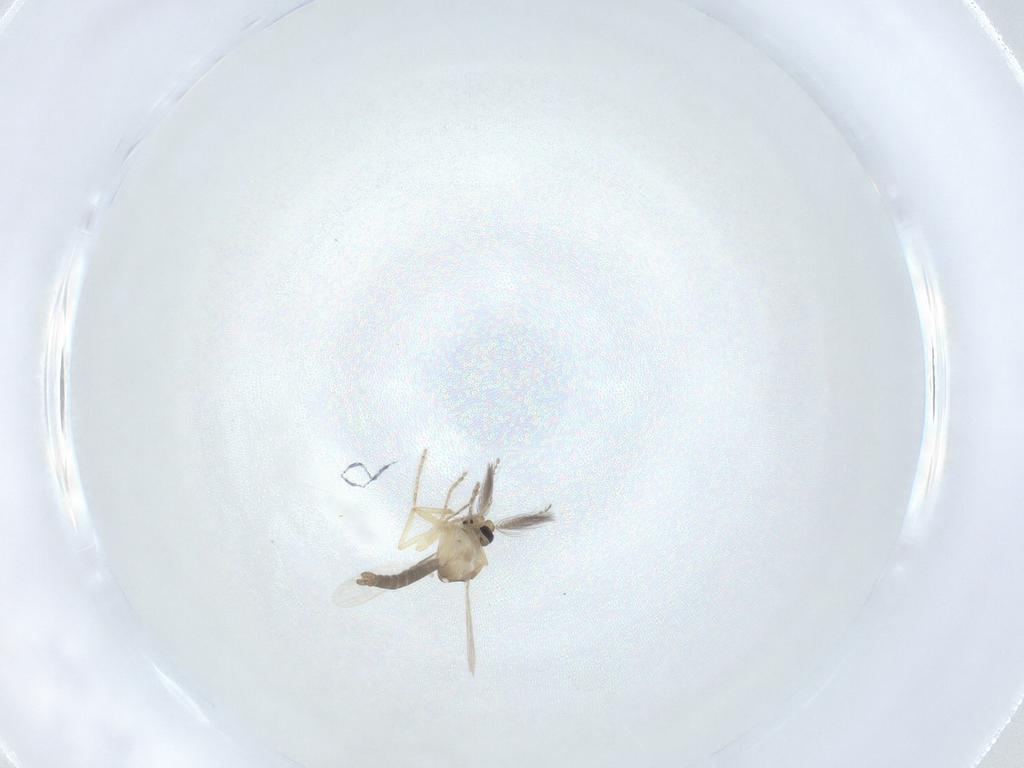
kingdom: Animalia
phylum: Arthropoda
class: Insecta
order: Diptera
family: Ceratopogonidae
